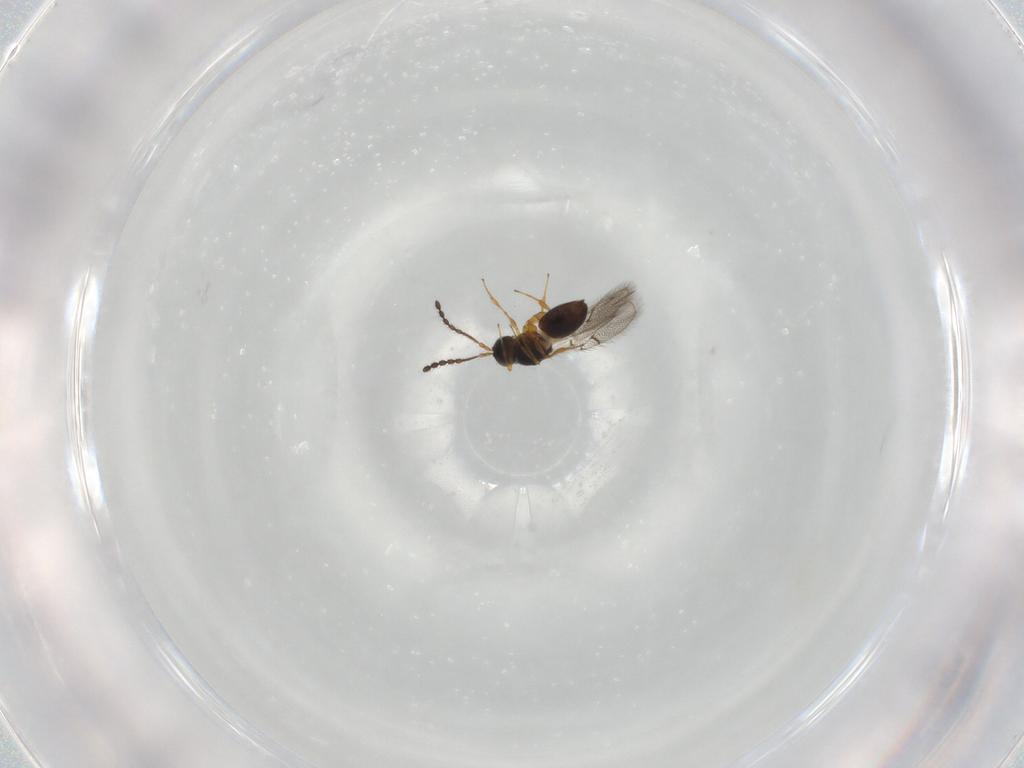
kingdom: Animalia
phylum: Arthropoda
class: Insecta
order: Hymenoptera
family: Figitidae
